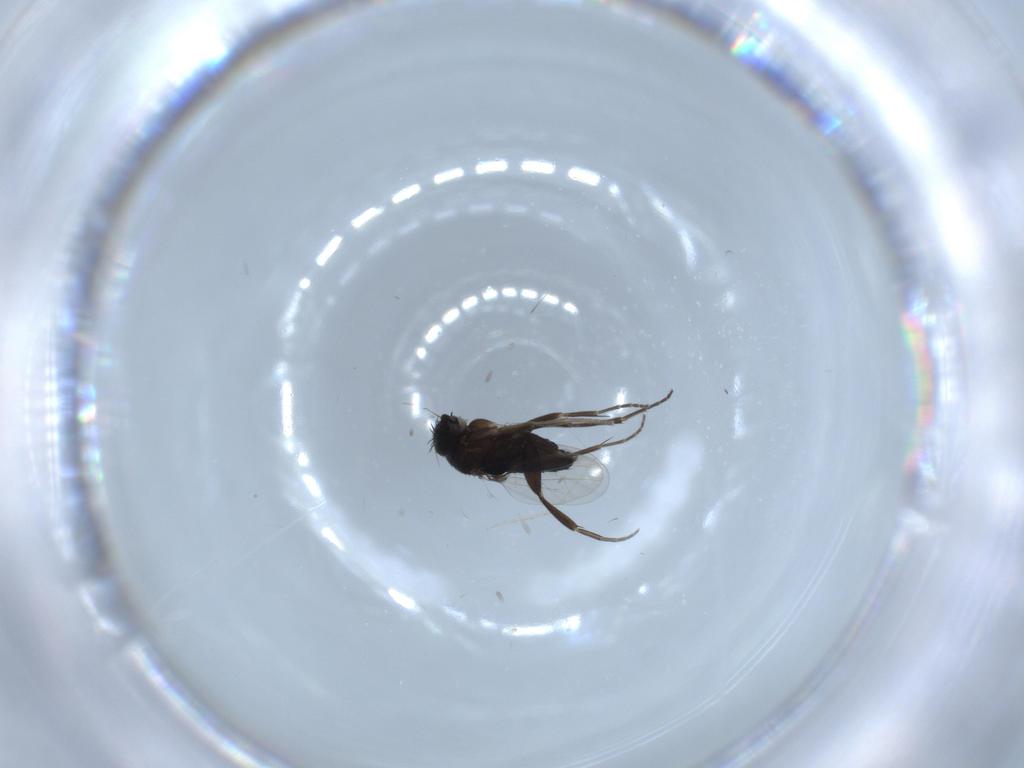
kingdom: Animalia
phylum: Arthropoda
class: Insecta
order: Diptera
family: Cecidomyiidae
